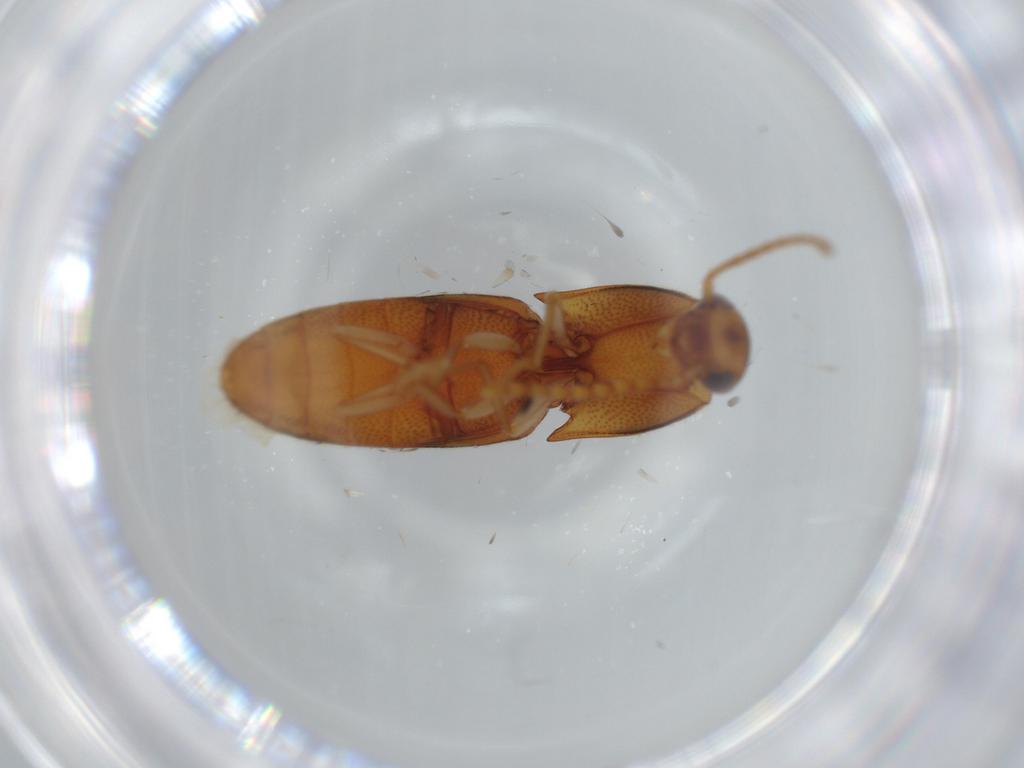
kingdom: Animalia
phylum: Arthropoda
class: Insecta
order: Coleoptera
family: Elateridae
